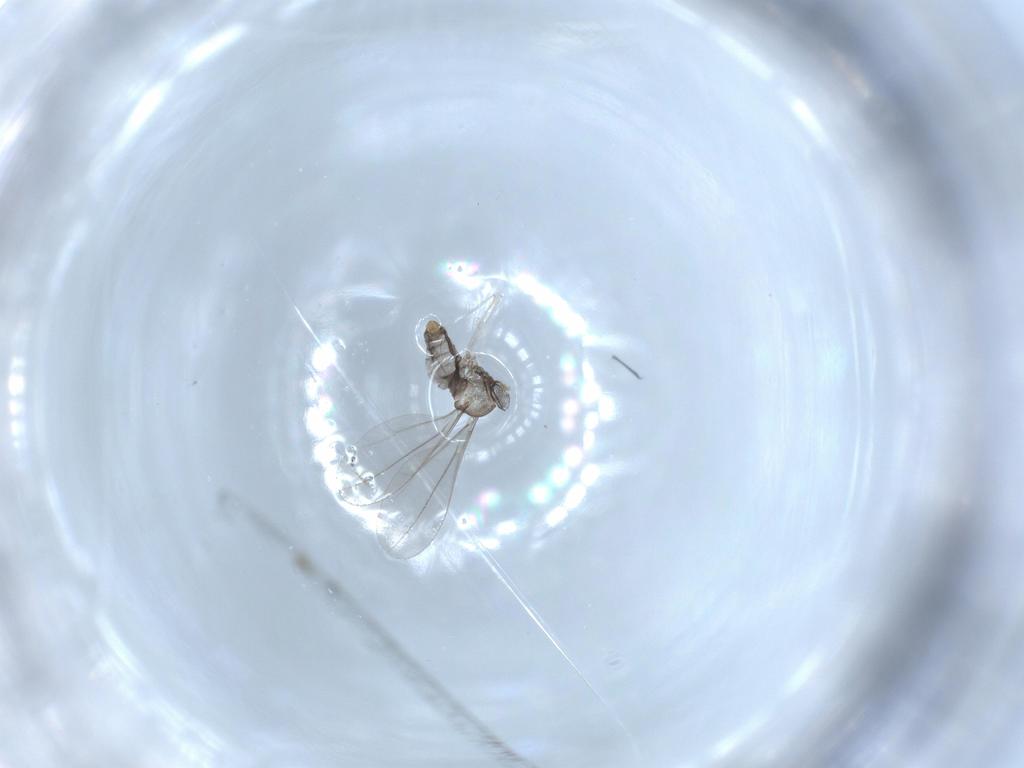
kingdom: Animalia
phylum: Arthropoda
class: Insecta
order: Diptera
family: Cecidomyiidae
